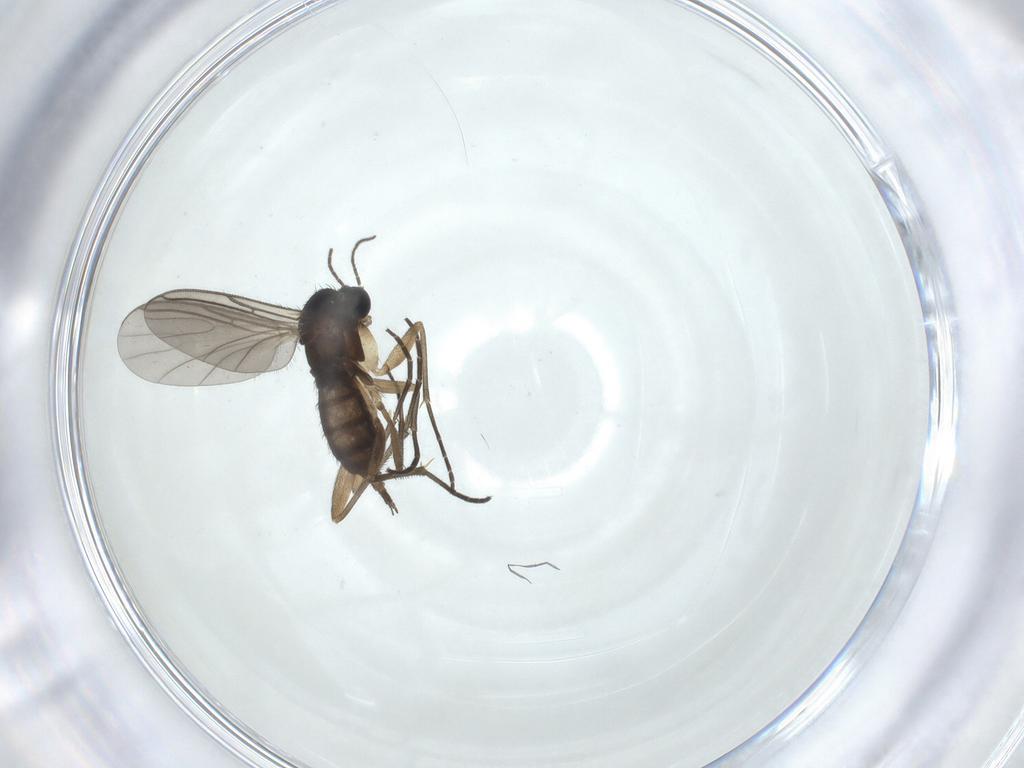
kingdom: Animalia
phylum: Arthropoda
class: Insecta
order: Diptera
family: Sciaridae
